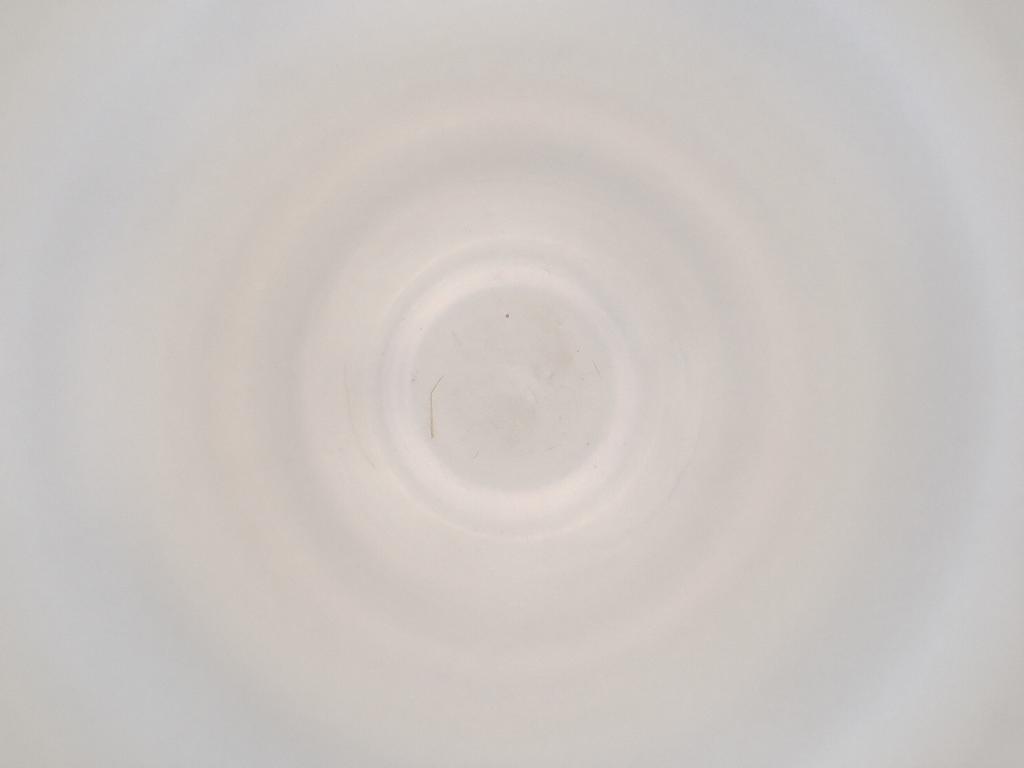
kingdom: Animalia
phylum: Arthropoda
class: Insecta
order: Diptera
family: Cecidomyiidae
